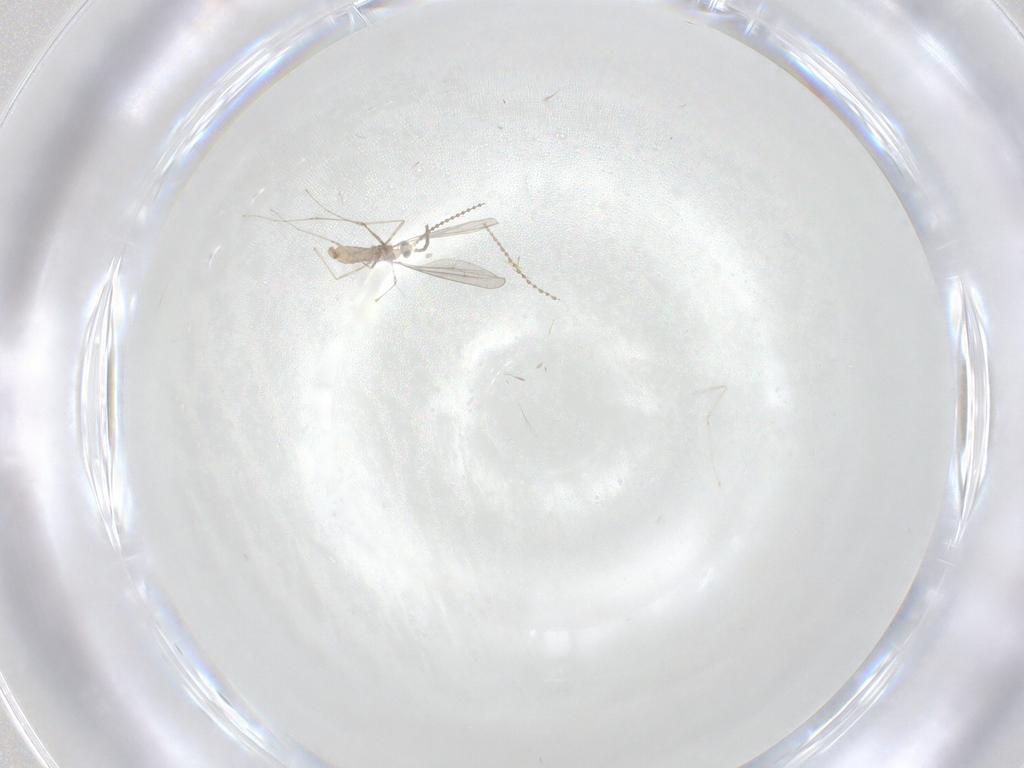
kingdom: Animalia
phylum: Arthropoda
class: Insecta
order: Diptera
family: Cecidomyiidae
